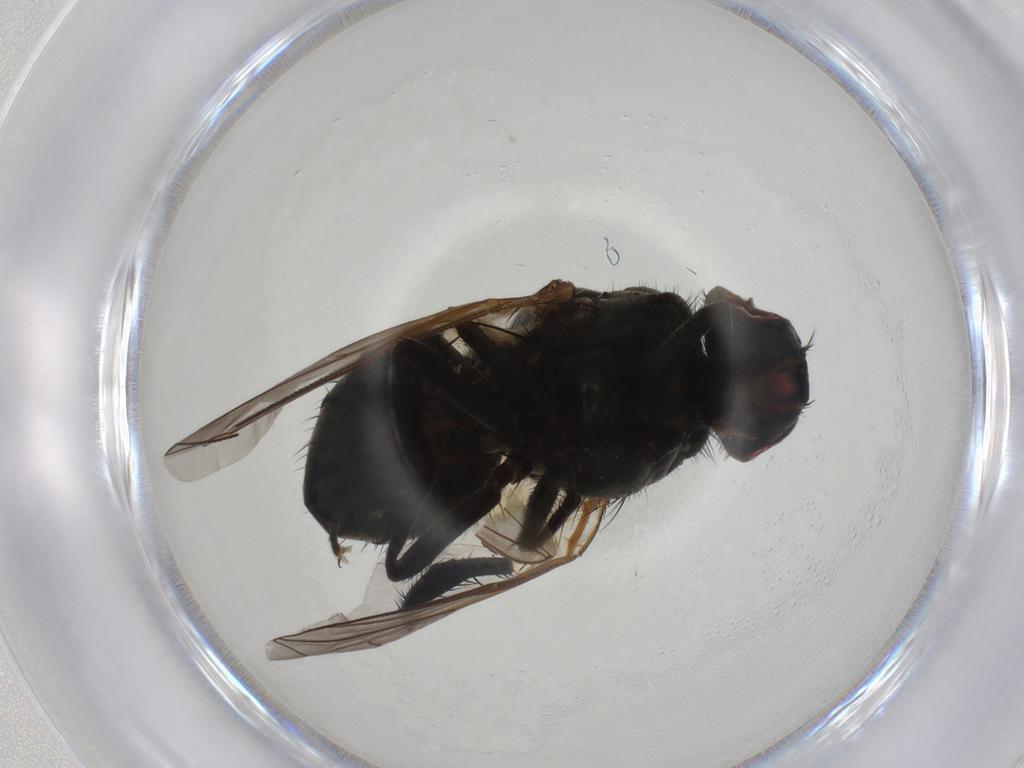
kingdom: Animalia
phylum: Arthropoda
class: Insecta
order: Diptera
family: Muscidae
